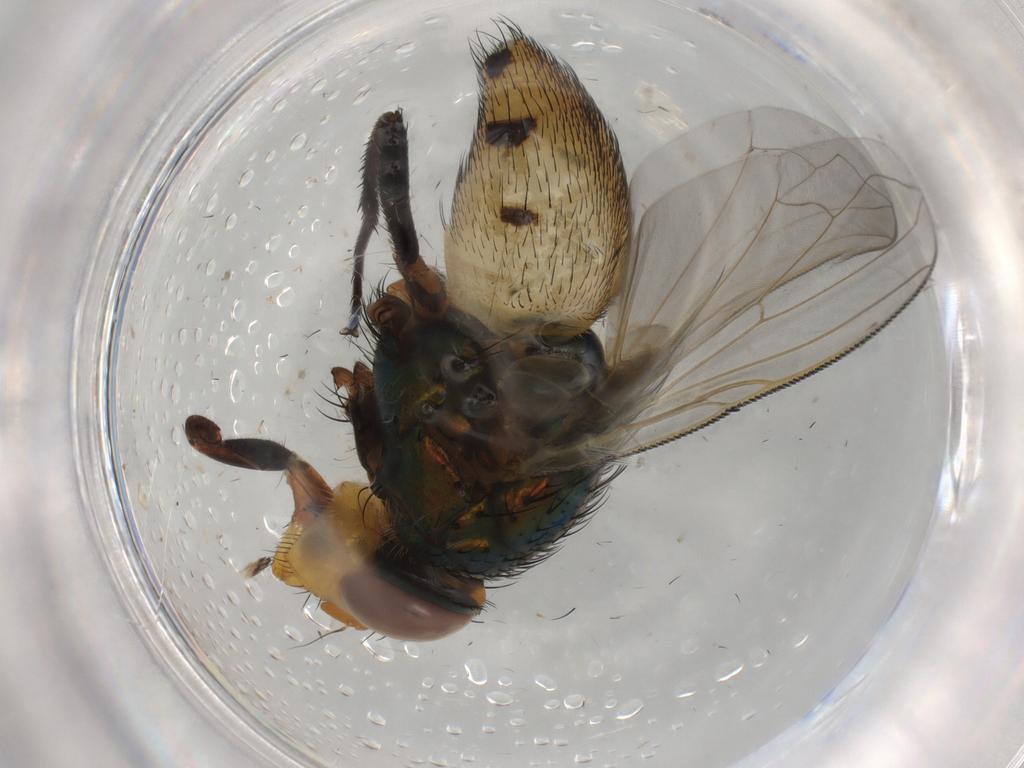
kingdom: Animalia
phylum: Arthropoda
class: Insecta
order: Diptera
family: Calliphoridae
